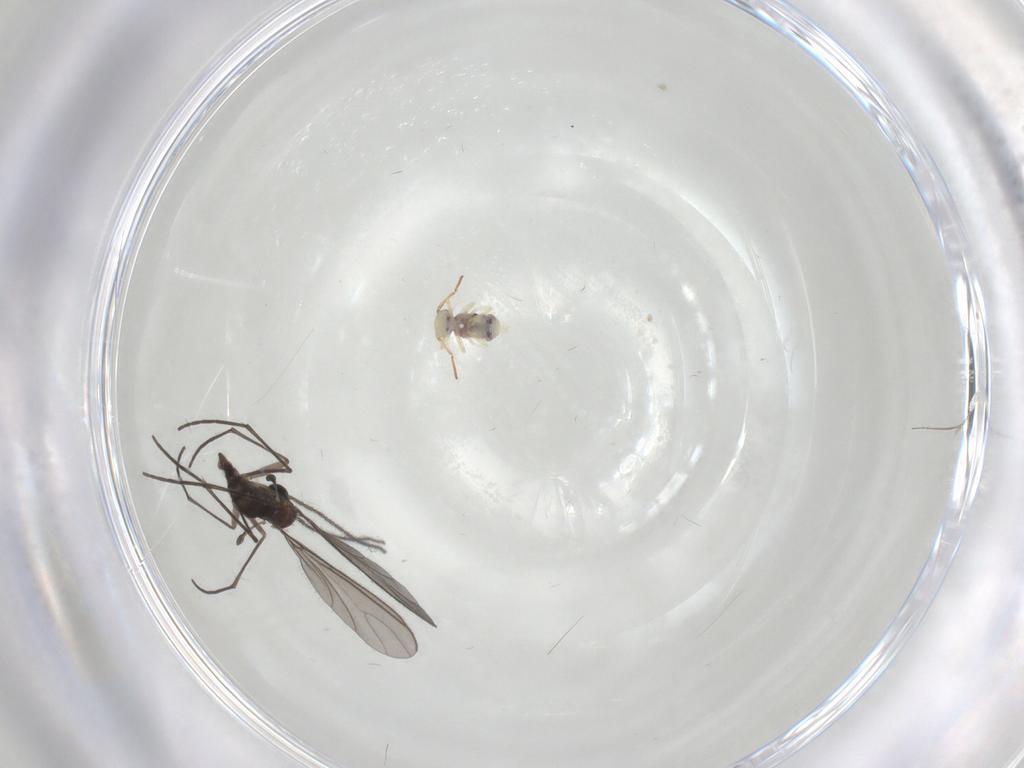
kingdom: Animalia
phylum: Arthropoda
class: Insecta
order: Diptera
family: Sciaridae
